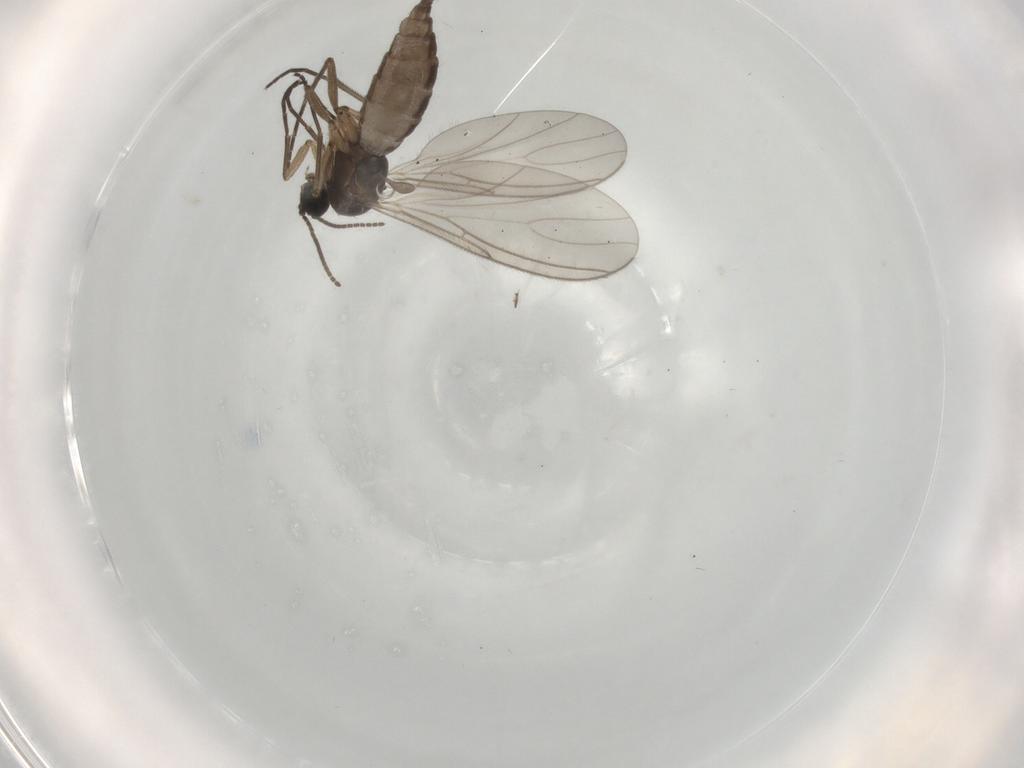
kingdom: Animalia
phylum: Arthropoda
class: Insecta
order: Diptera
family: Sciaridae
